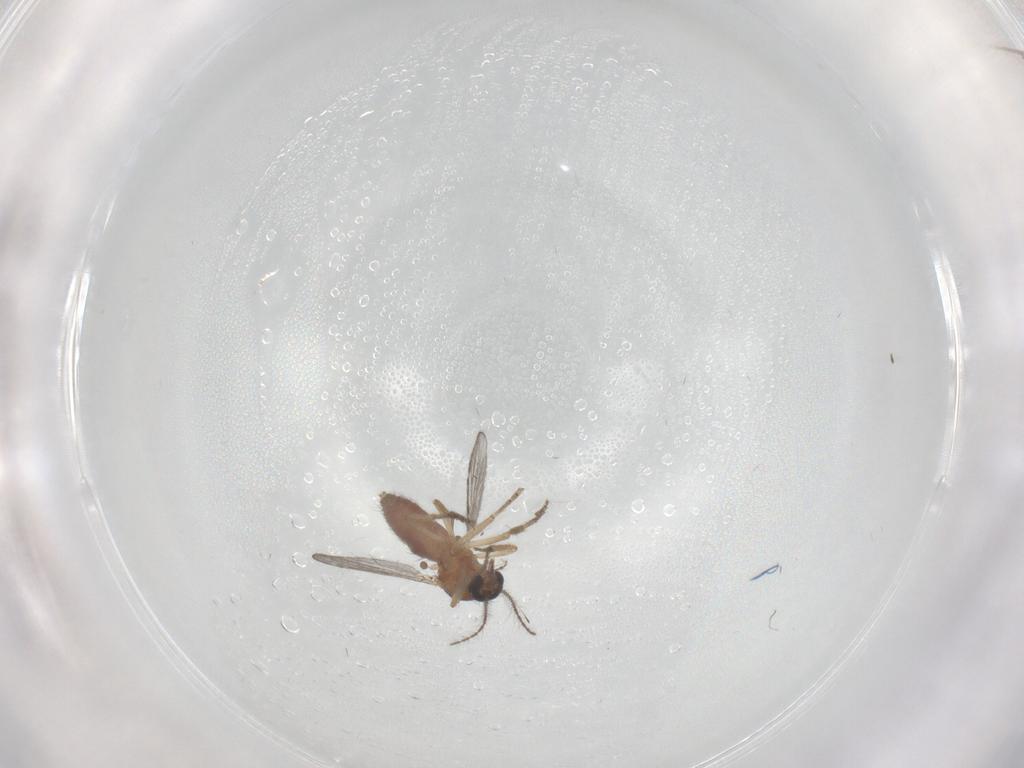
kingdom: Animalia
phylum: Arthropoda
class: Insecta
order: Diptera
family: Ceratopogonidae
